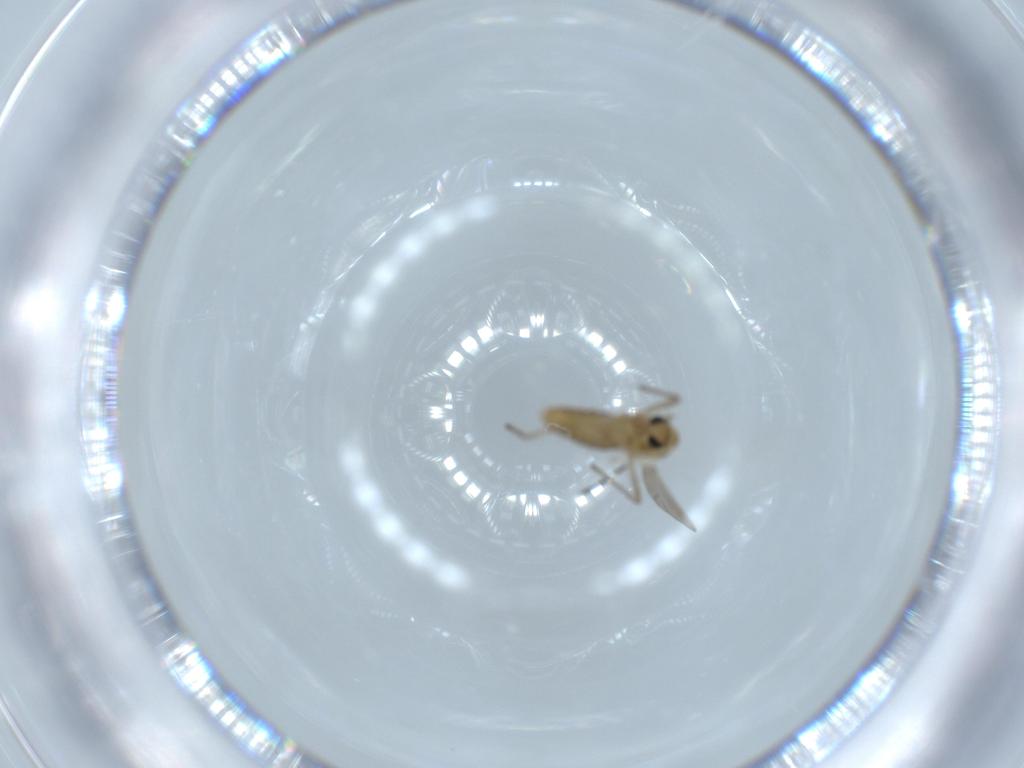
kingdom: Animalia
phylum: Arthropoda
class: Insecta
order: Diptera
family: Chironomidae
